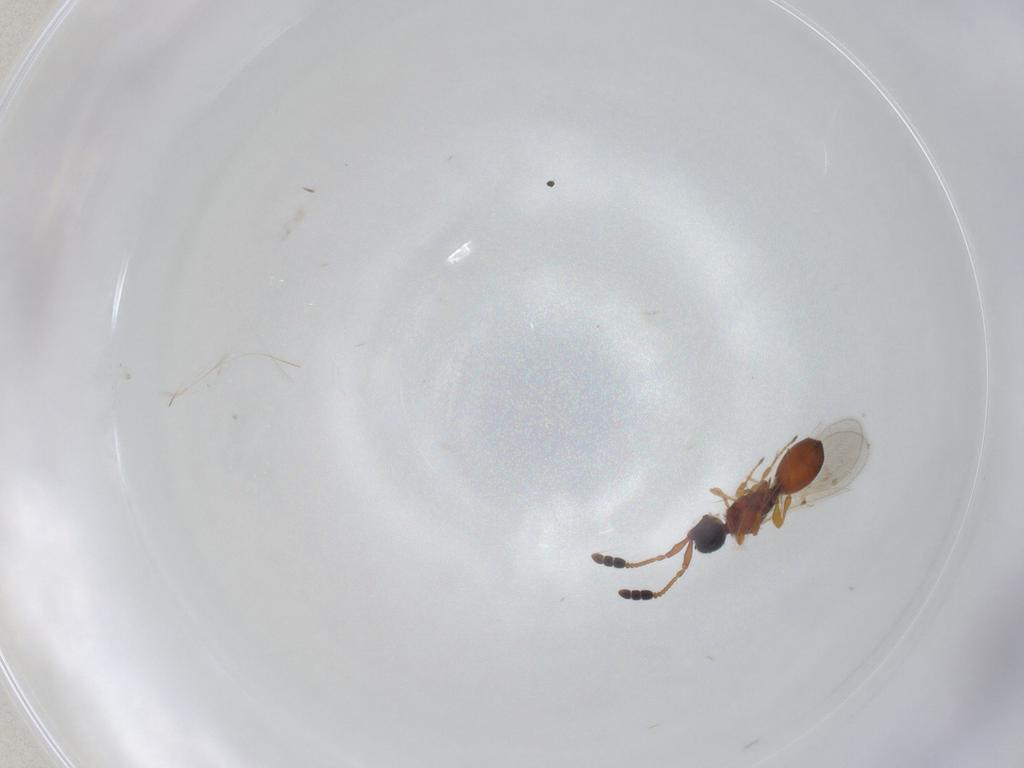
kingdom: Animalia
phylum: Arthropoda
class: Insecta
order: Hymenoptera
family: Diapriidae
